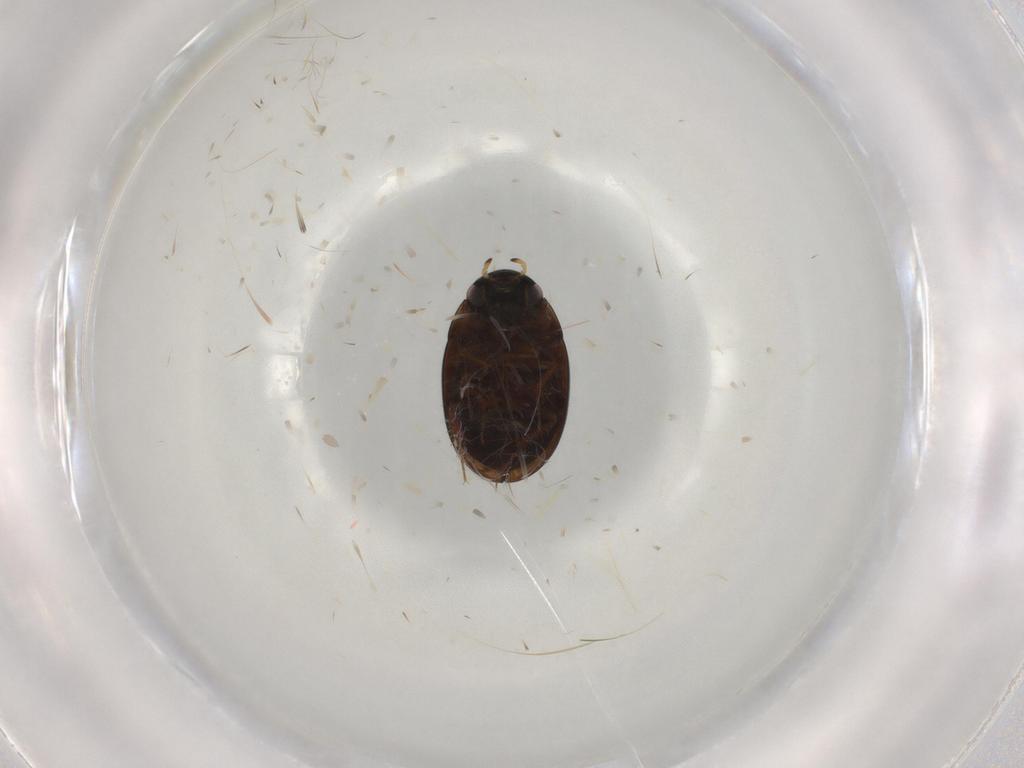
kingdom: Animalia
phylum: Arthropoda
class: Insecta
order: Coleoptera
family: Hydrophilidae
